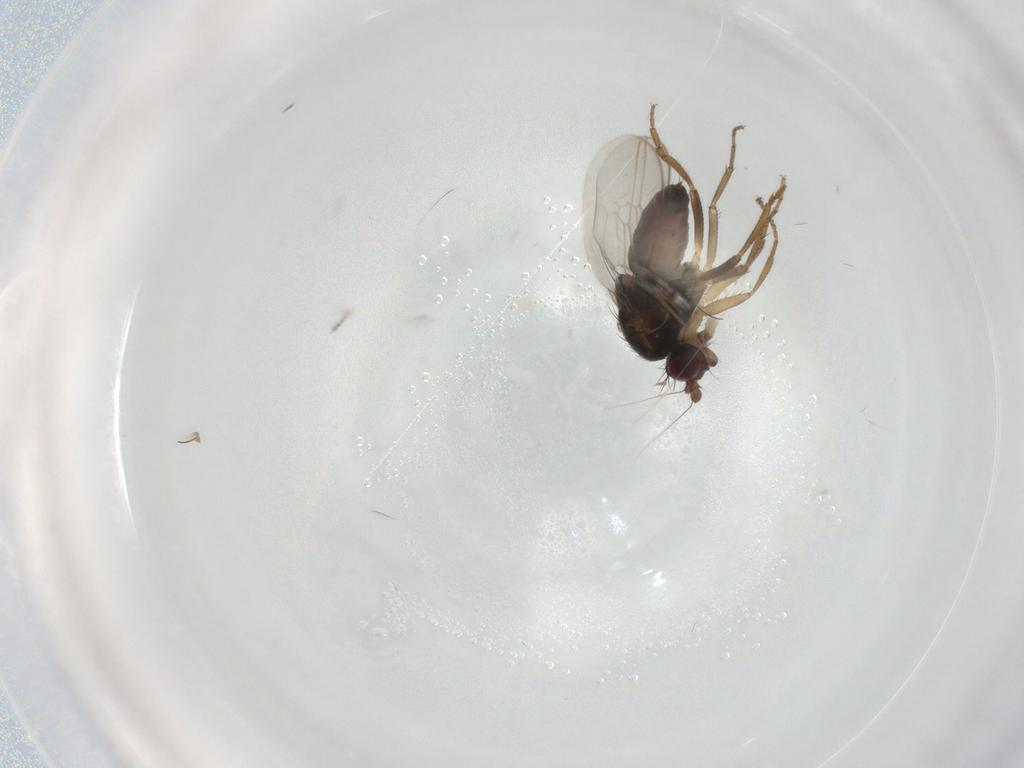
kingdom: Animalia
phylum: Arthropoda
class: Insecta
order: Diptera
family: Sphaeroceridae
